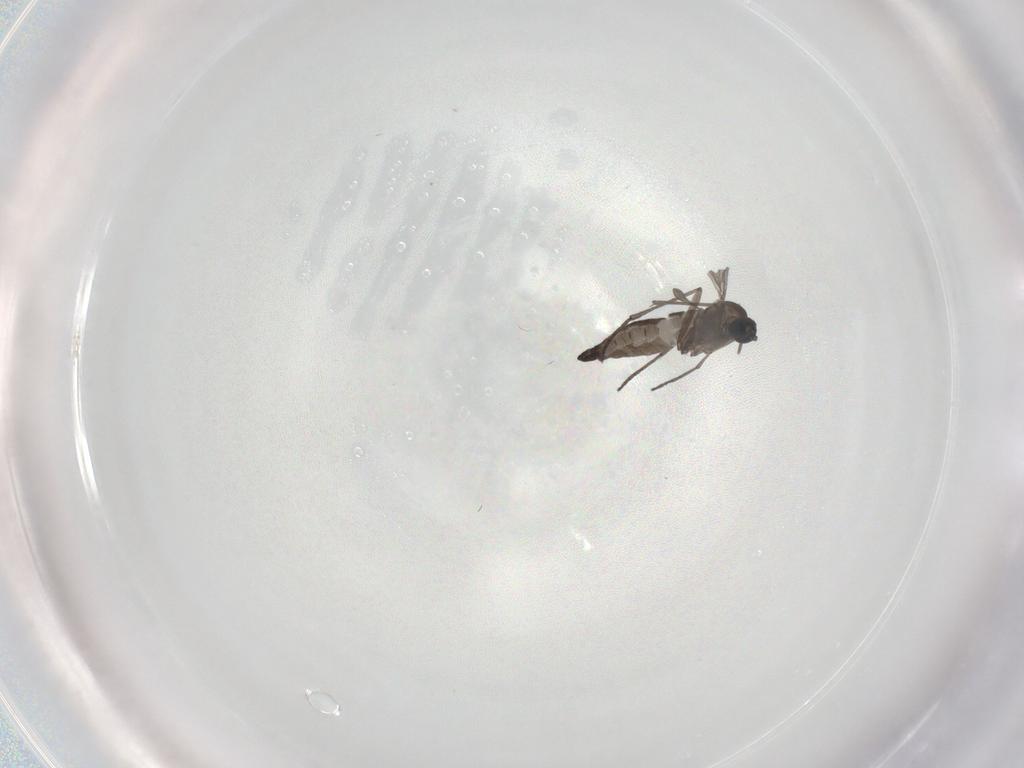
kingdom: Animalia
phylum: Arthropoda
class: Insecta
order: Diptera
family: Sciaridae
